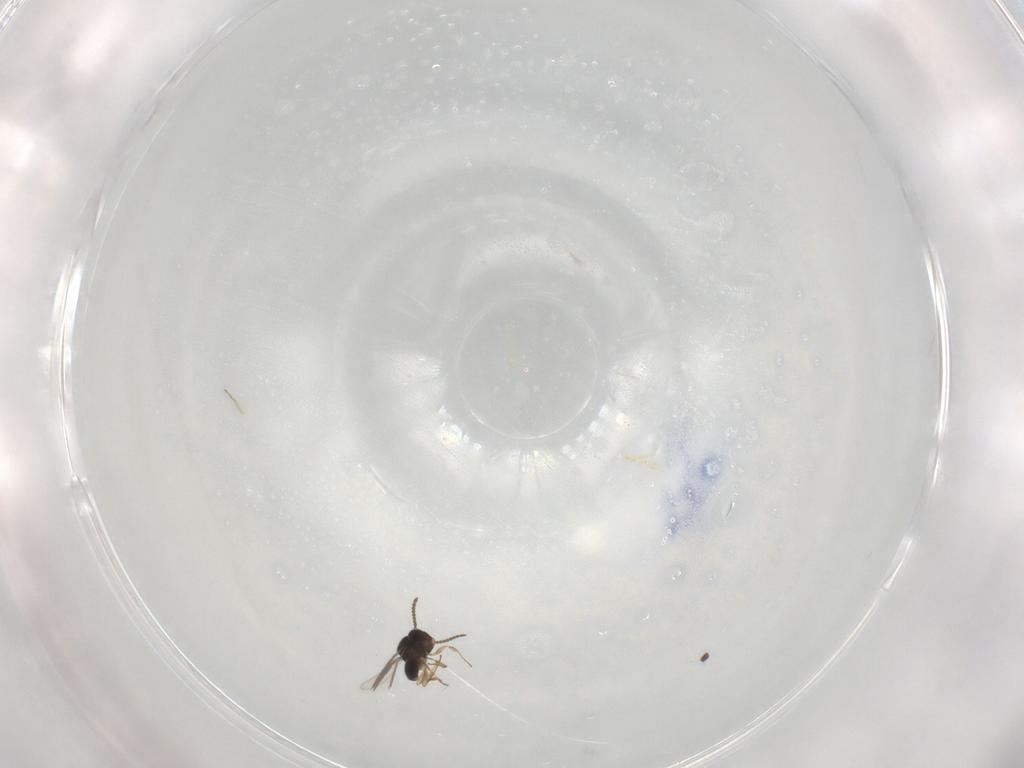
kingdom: Animalia
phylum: Arthropoda
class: Insecta
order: Hymenoptera
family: Scelionidae
